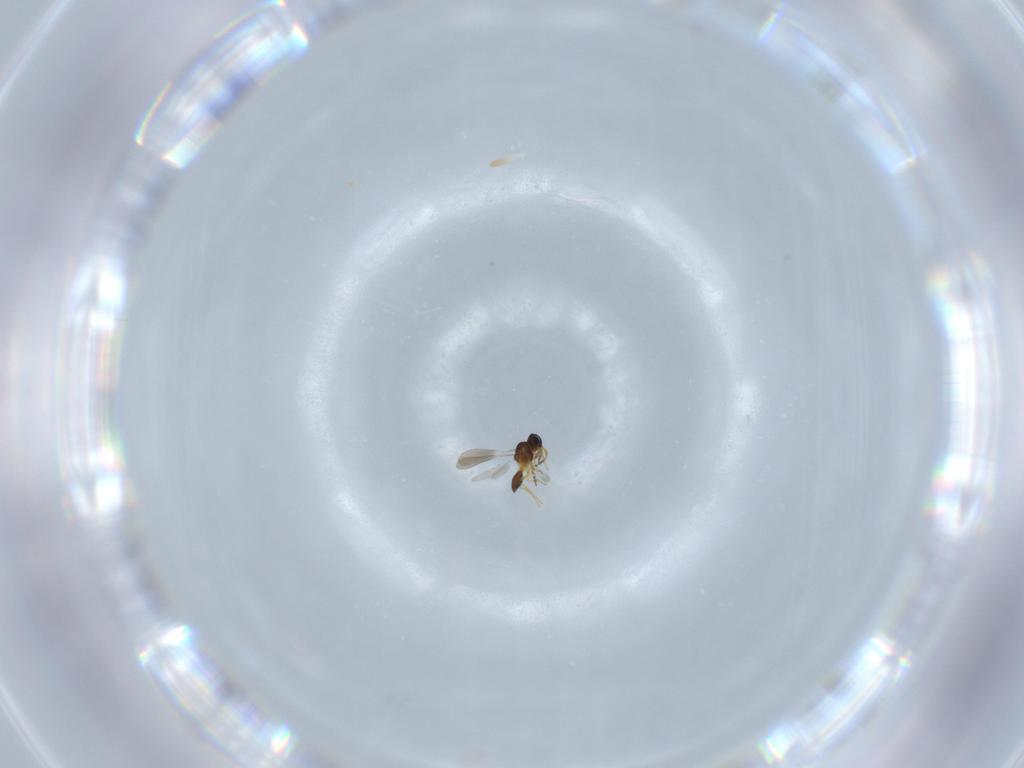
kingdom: Animalia
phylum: Arthropoda
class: Insecta
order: Hymenoptera
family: Platygastridae
